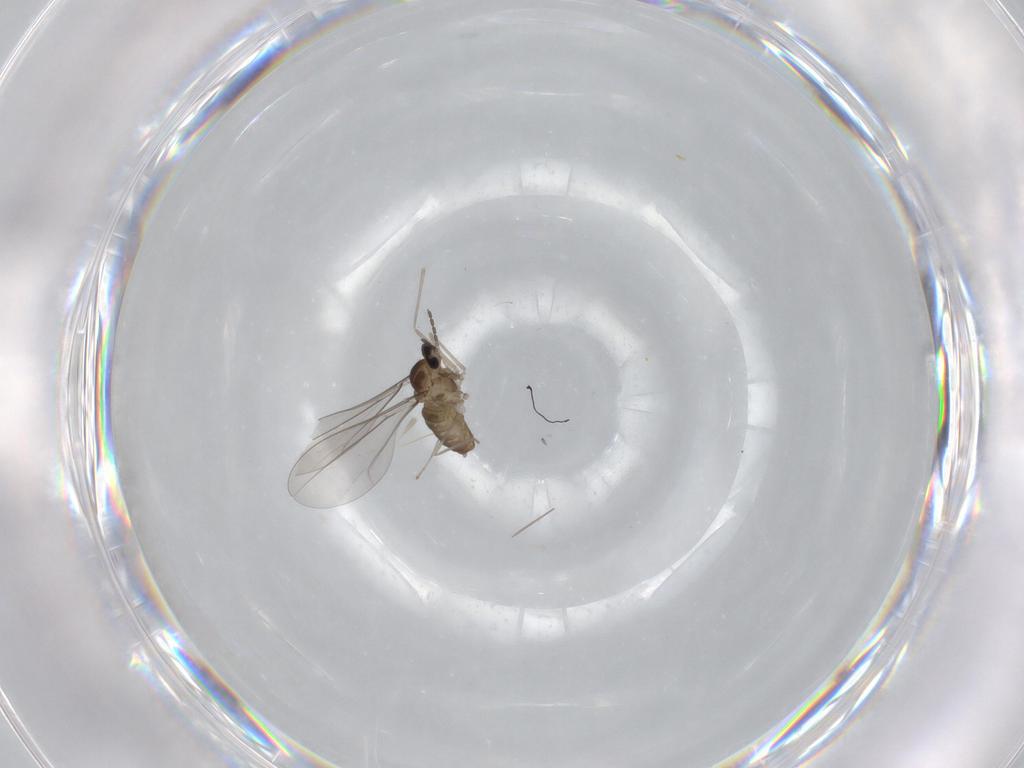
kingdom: Animalia
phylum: Arthropoda
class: Insecta
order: Diptera
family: Cecidomyiidae
